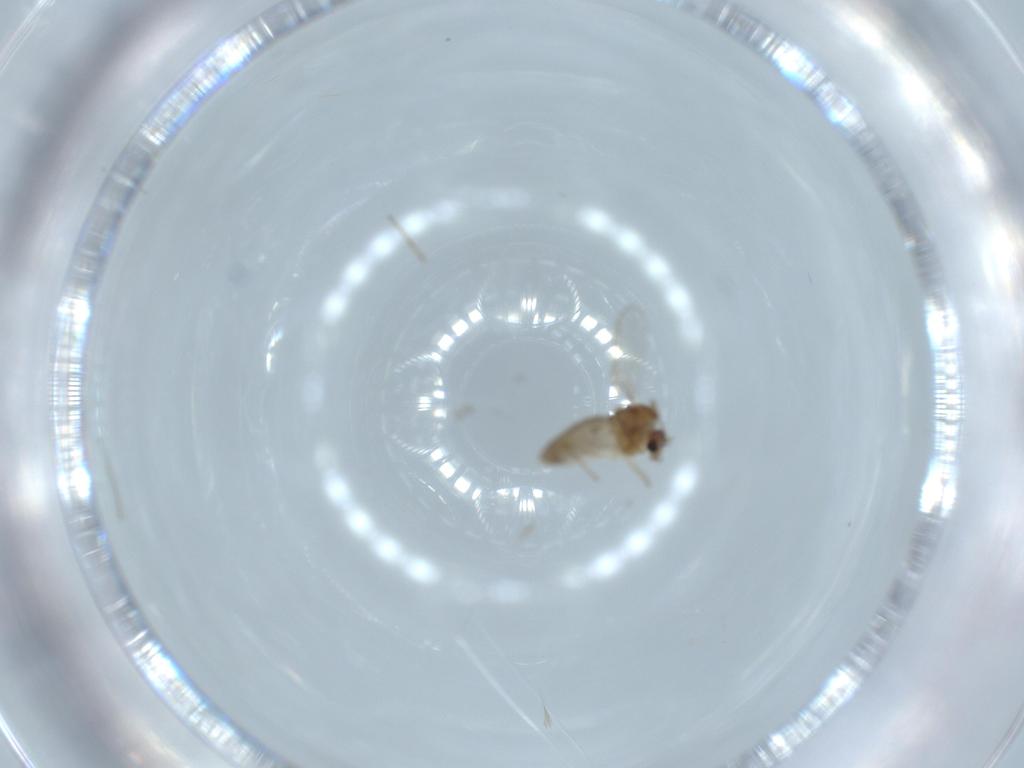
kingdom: Animalia
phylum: Arthropoda
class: Insecta
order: Diptera
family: Chironomidae
